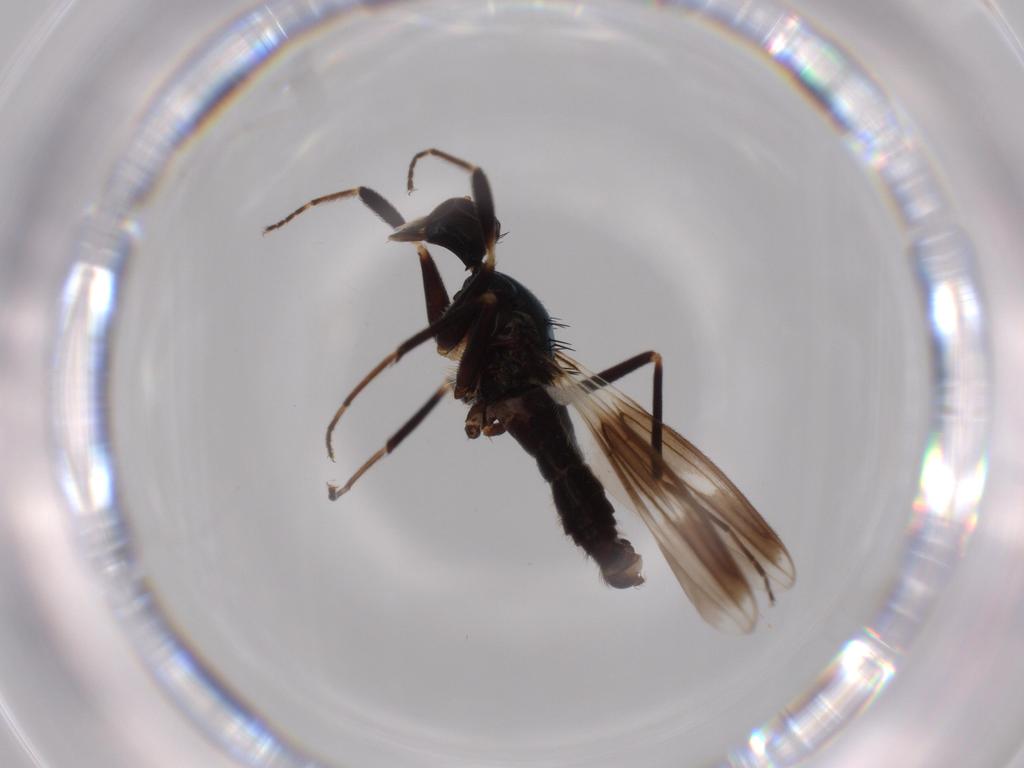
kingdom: Animalia
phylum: Arthropoda
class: Insecta
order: Diptera
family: Hybotidae
